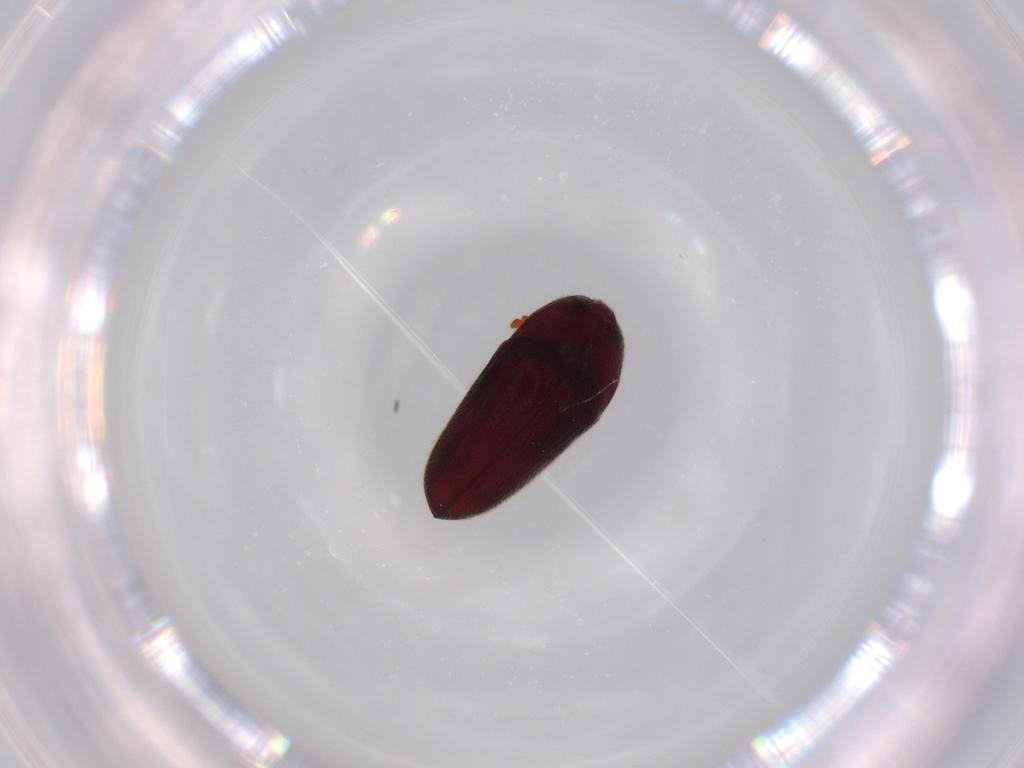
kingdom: Animalia
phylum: Arthropoda
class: Insecta
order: Coleoptera
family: Throscidae
